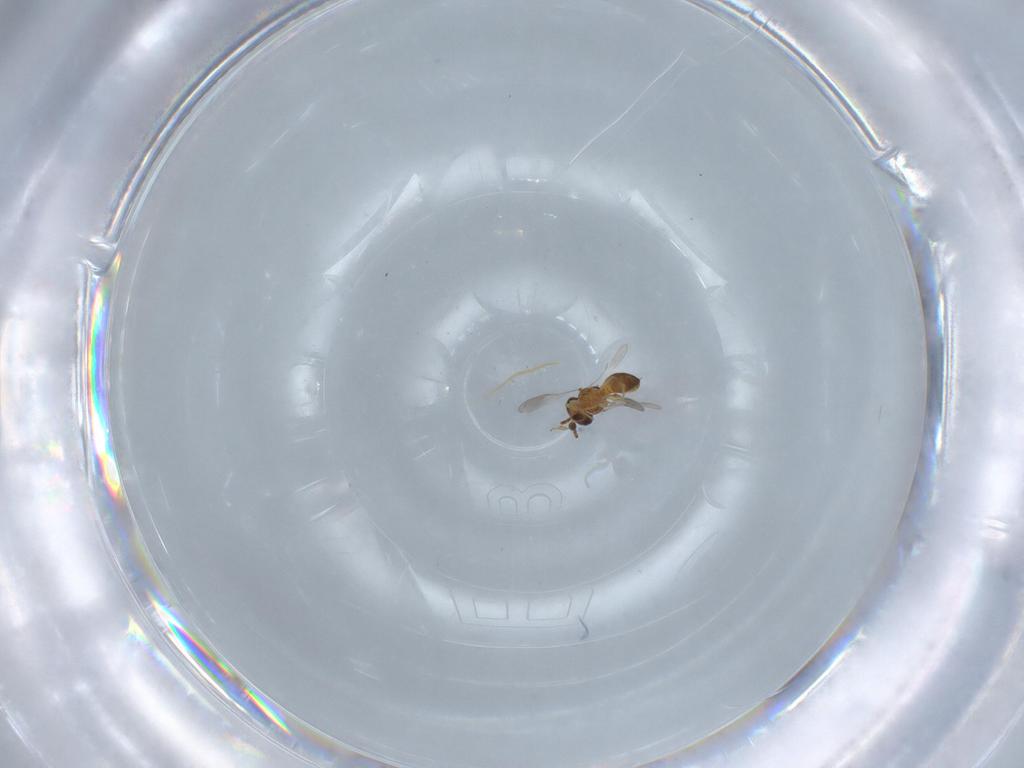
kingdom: Animalia
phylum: Arthropoda
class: Insecta
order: Hymenoptera
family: Scelionidae
